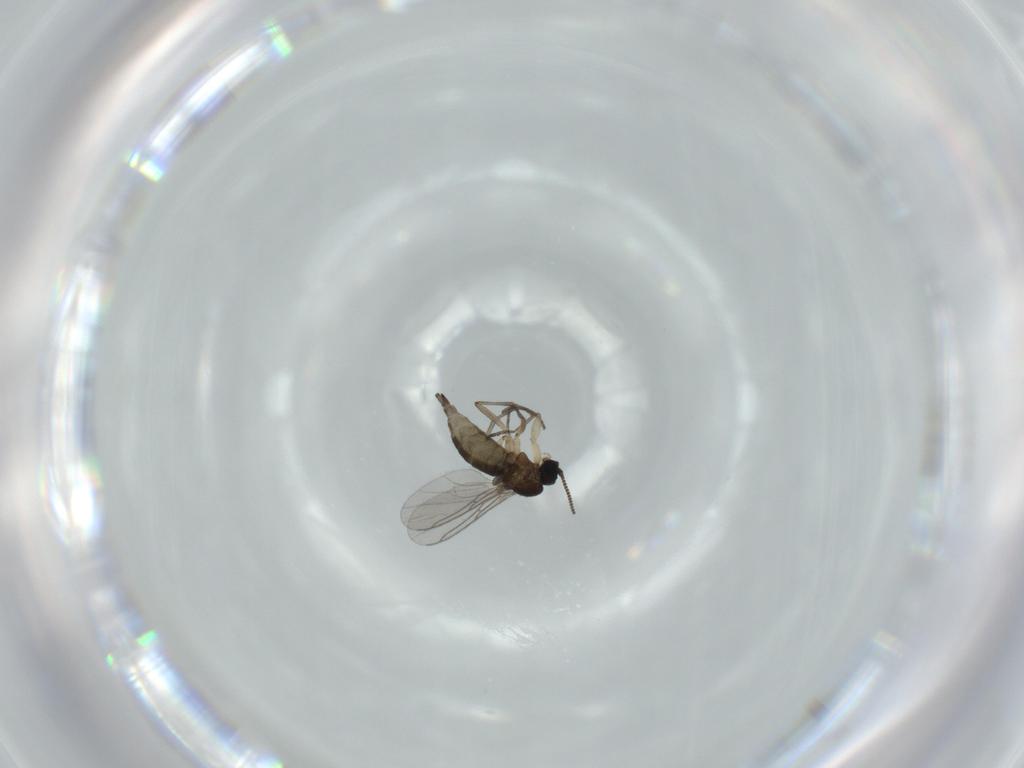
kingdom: Animalia
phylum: Arthropoda
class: Insecta
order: Diptera
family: Sciaridae
